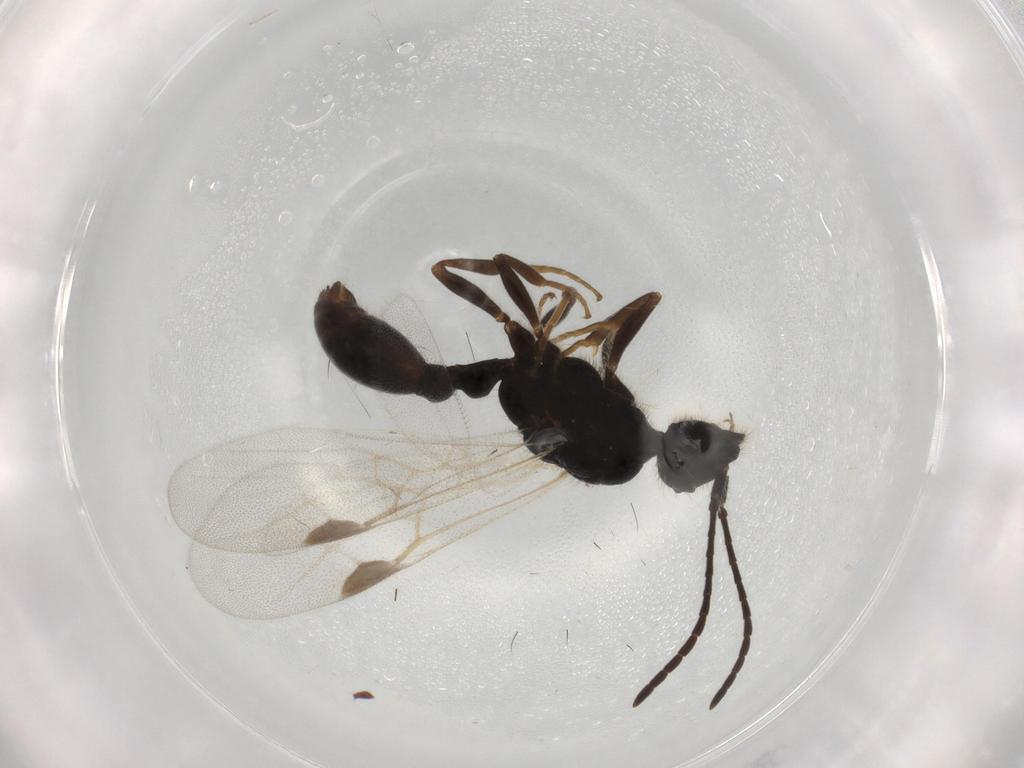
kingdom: Animalia
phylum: Arthropoda
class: Insecta
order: Hymenoptera
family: Formicidae
